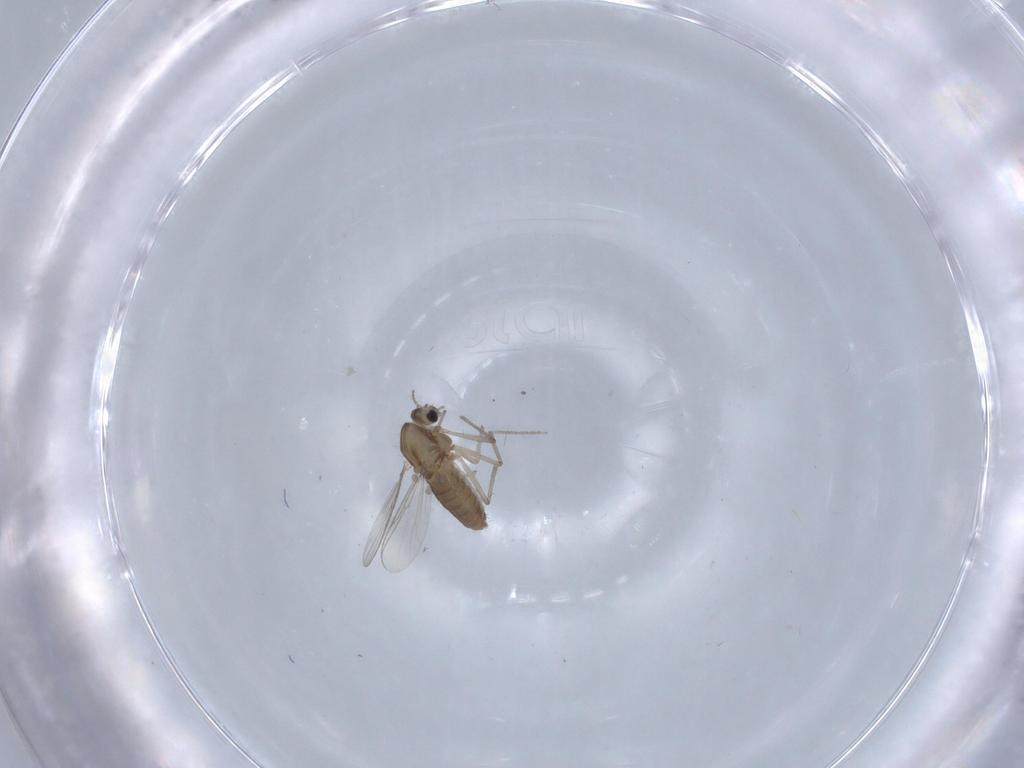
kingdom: Animalia
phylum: Arthropoda
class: Insecta
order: Diptera
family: Chironomidae
